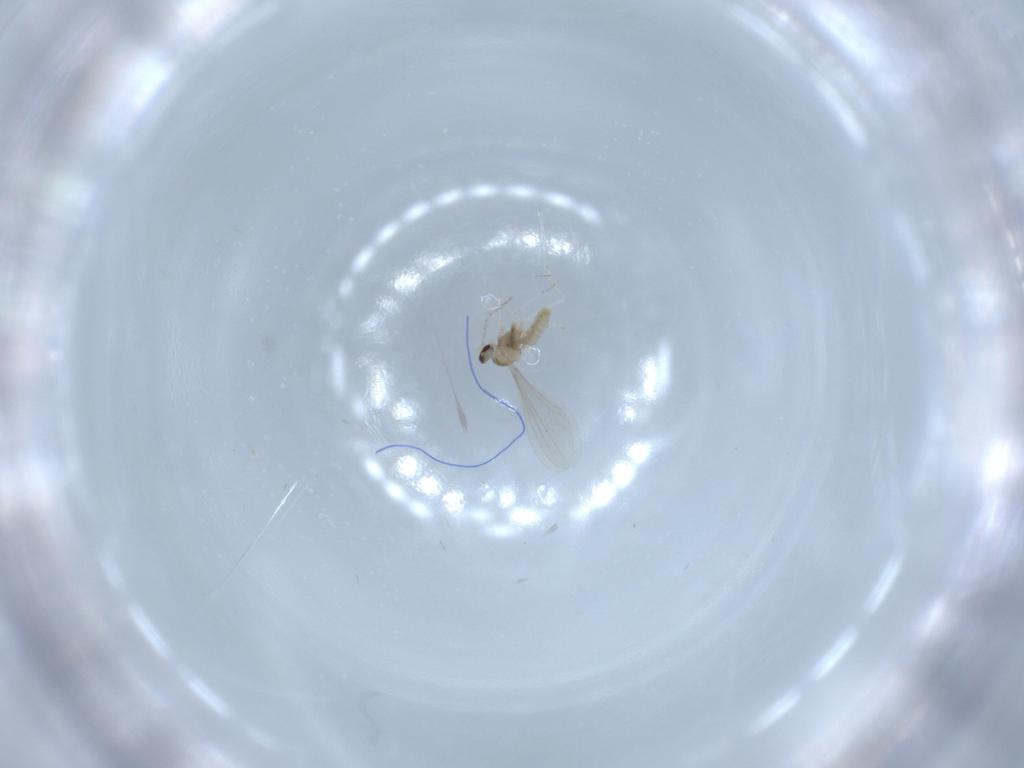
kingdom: Animalia
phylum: Arthropoda
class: Insecta
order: Diptera
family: Cecidomyiidae
